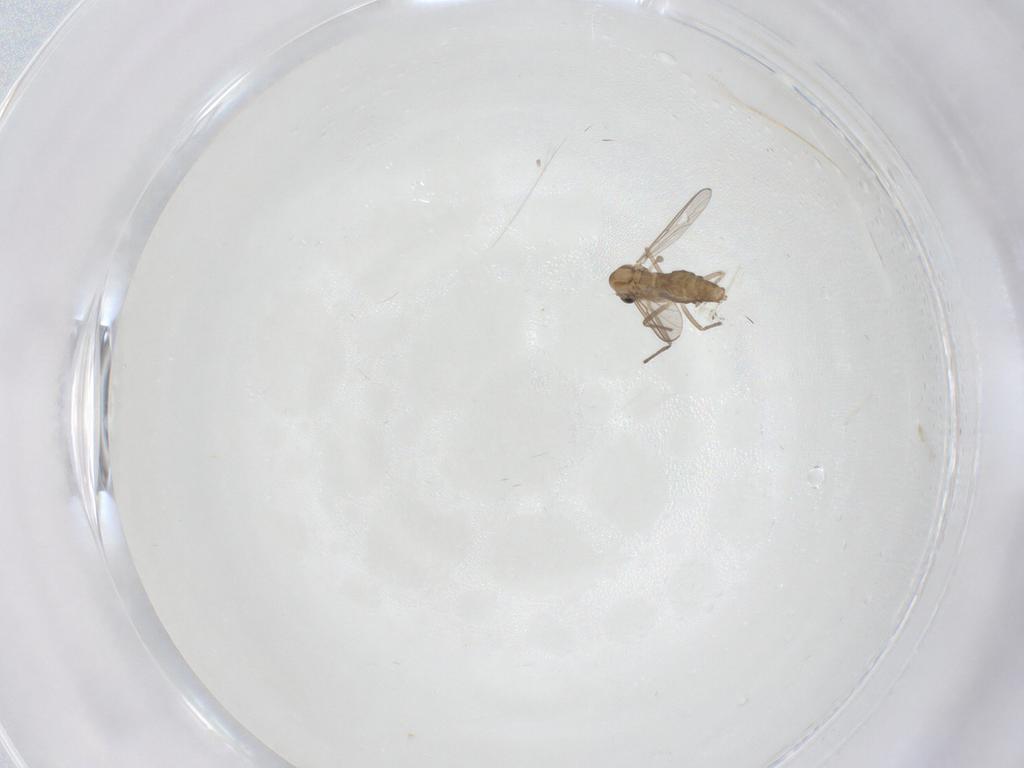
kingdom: Animalia
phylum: Arthropoda
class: Insecta
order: Diptera
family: Chironomidae
